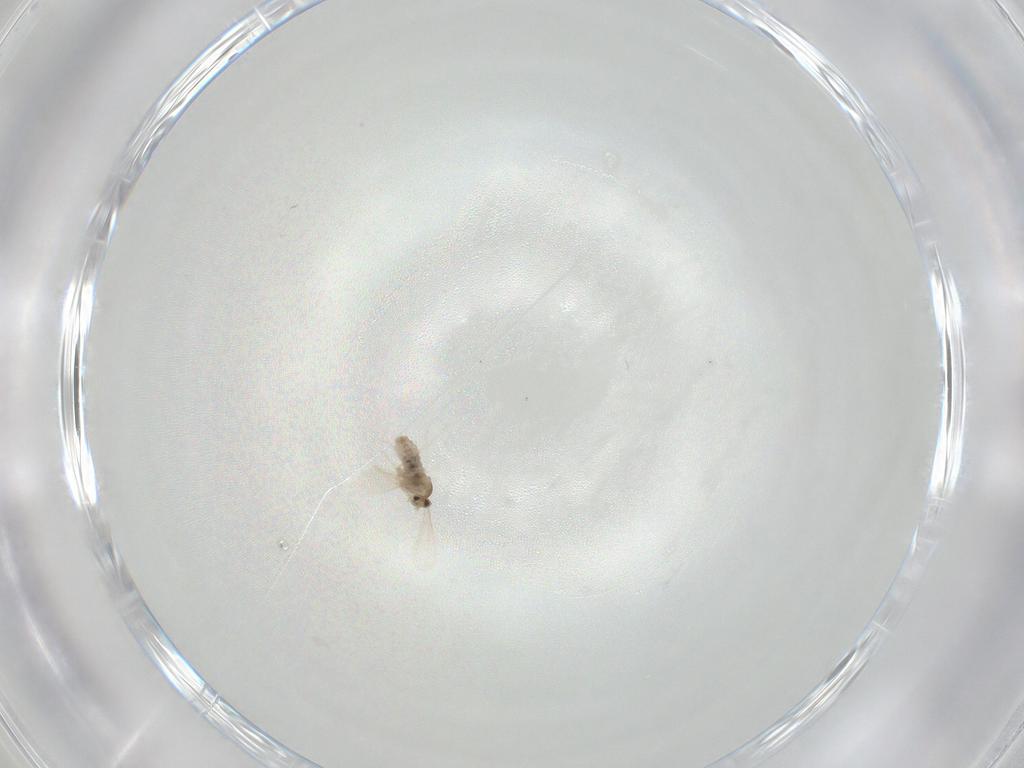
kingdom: Animalia
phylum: Arthropoda
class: Insecta
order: Diptera
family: Sciaridae
